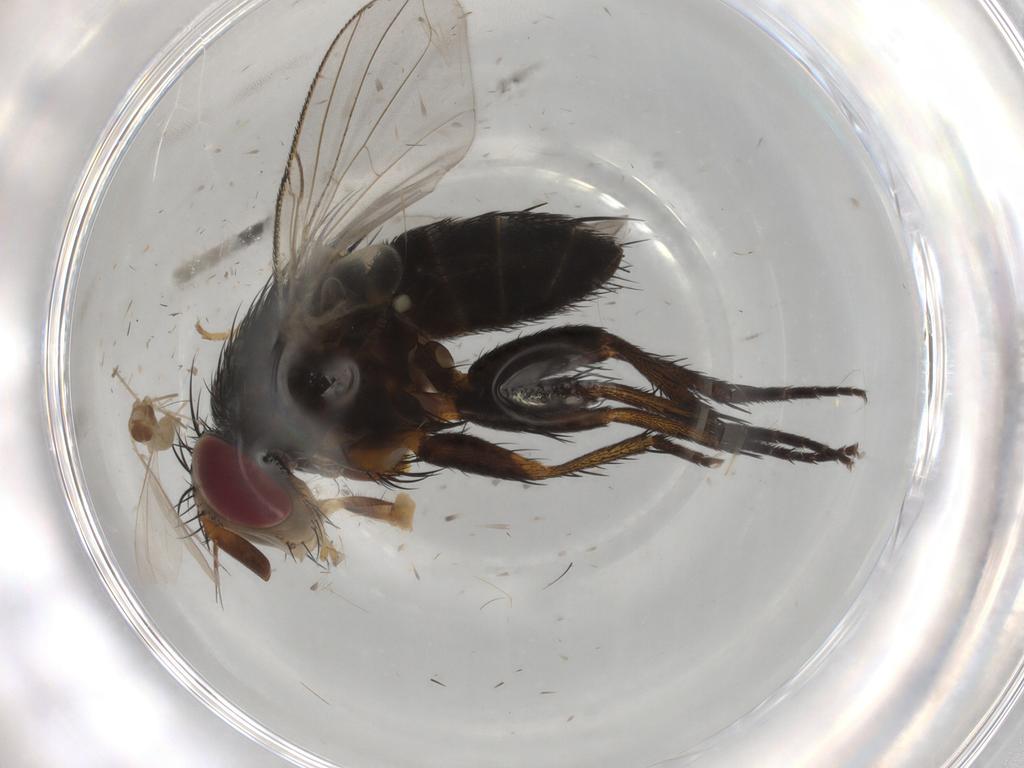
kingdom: Animalia
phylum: Arthropoda
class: Insecta
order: Diptera
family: Cecidomyiidae
